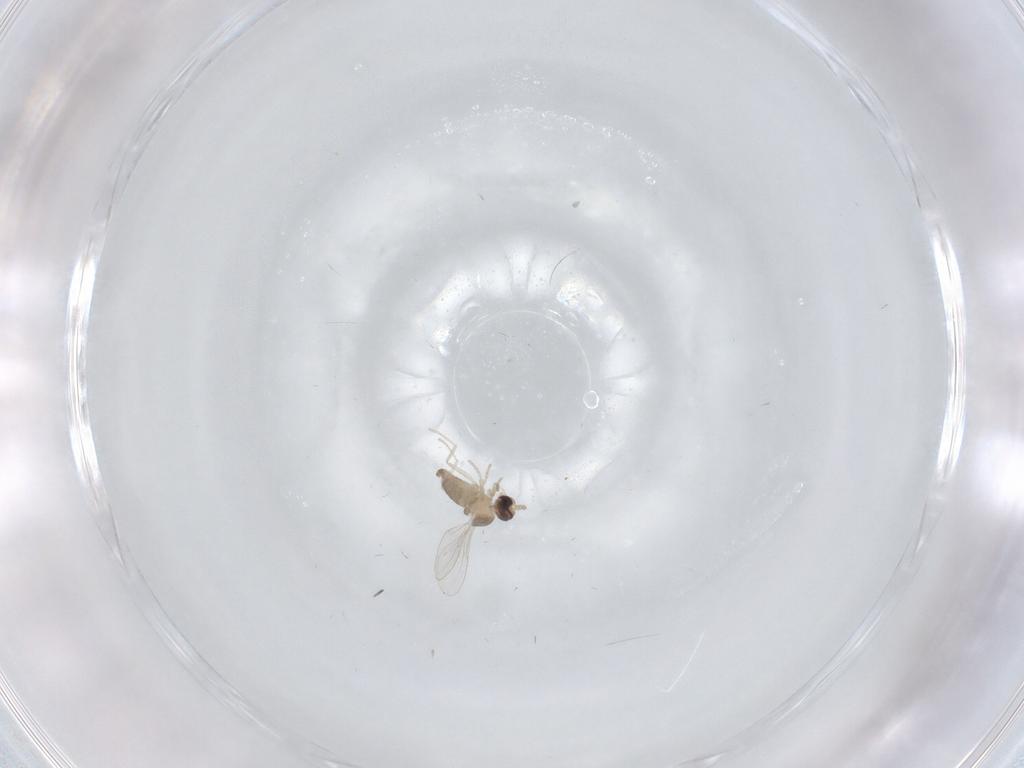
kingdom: Animalia
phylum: Arthropoda
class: Insecta
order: Diptera
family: Cecidomyiidae
